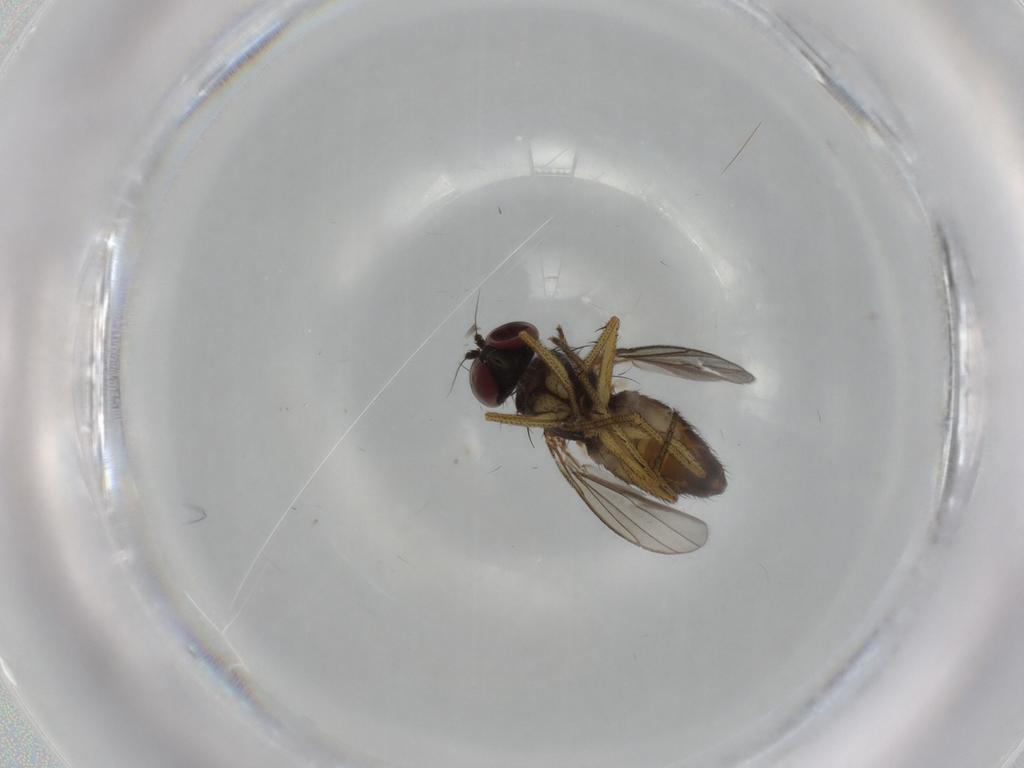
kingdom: Animalia
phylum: Arthropoda
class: Insecta
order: Diptera
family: Dolichopodidae
